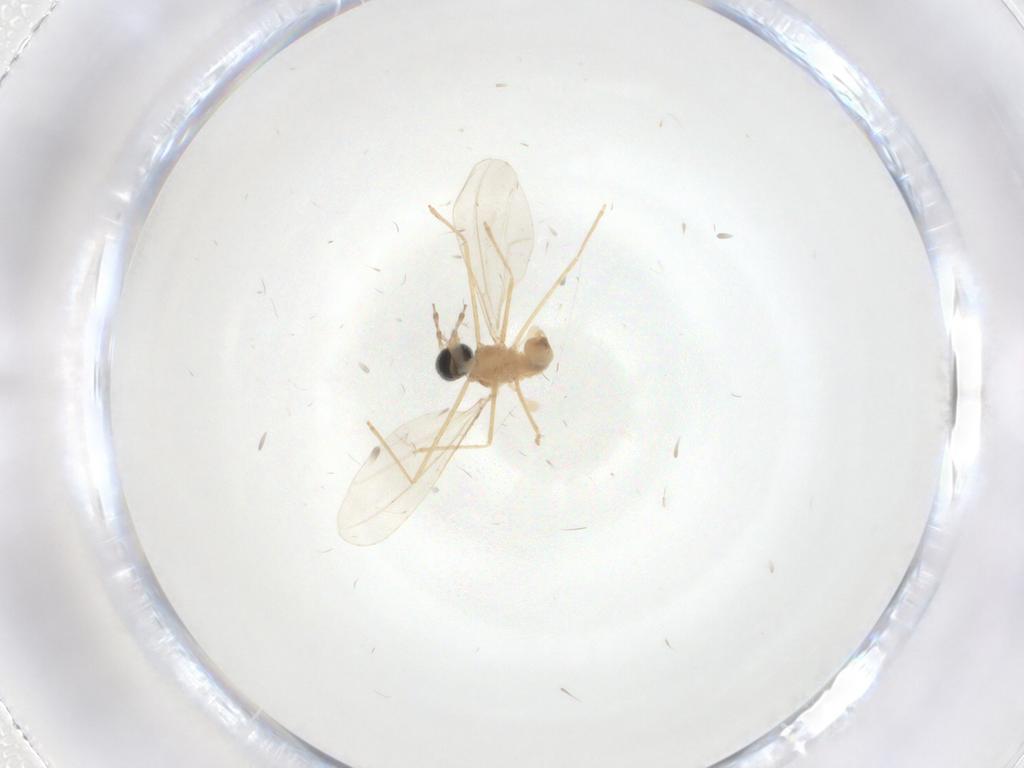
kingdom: Animalia
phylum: Arthropoda
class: Insecta
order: Diptera
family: Cecidomyiidae
